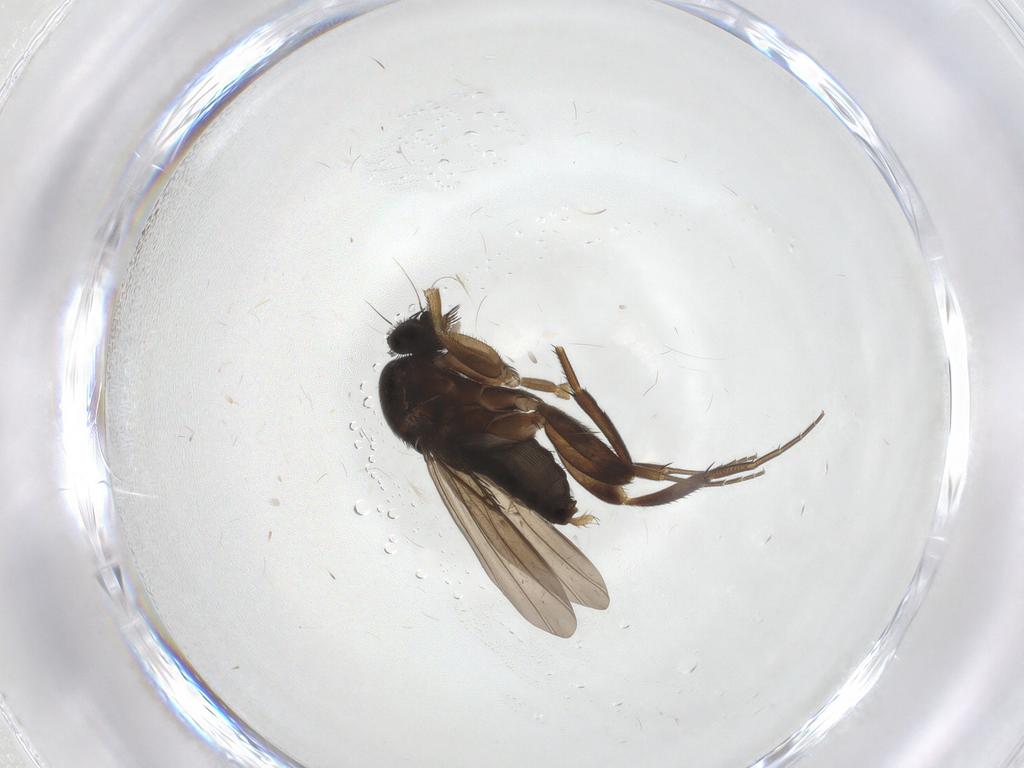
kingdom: Animalia
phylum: Arthropoda
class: Insecta
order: Diptera
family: Phoridae
